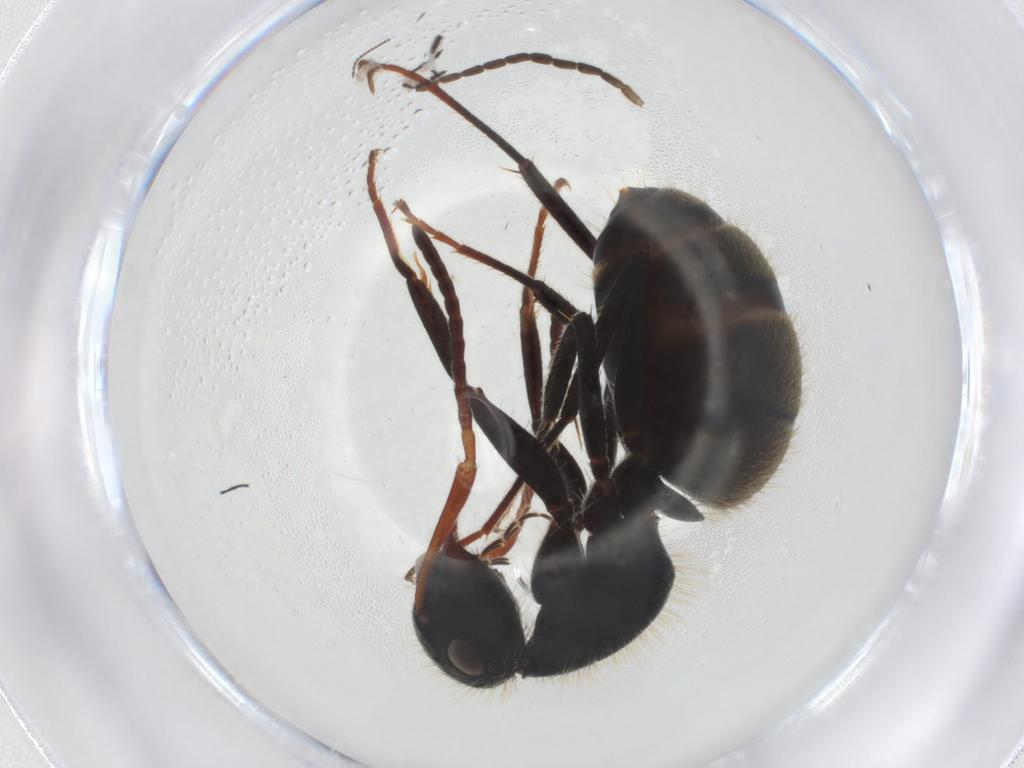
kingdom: Animalia
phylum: Arthropoda
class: Insecta
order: Hymenoptera
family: Formicidae
